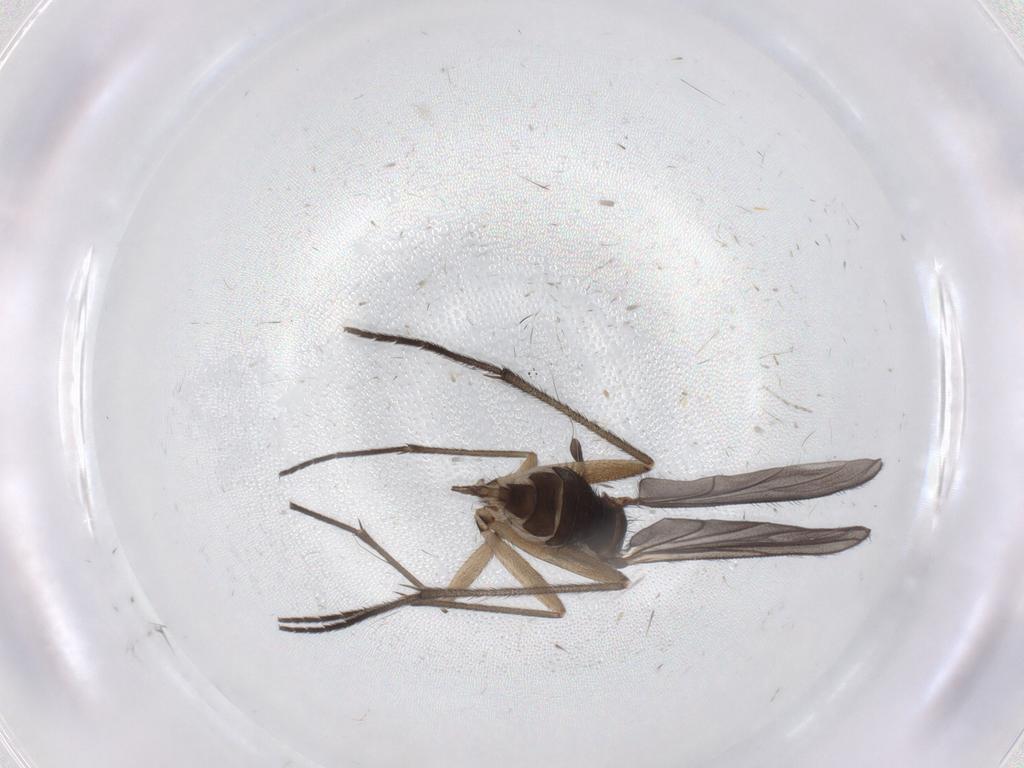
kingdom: Animalia
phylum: Arthropoda
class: Insecta
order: Diptera
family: Sciaridae
